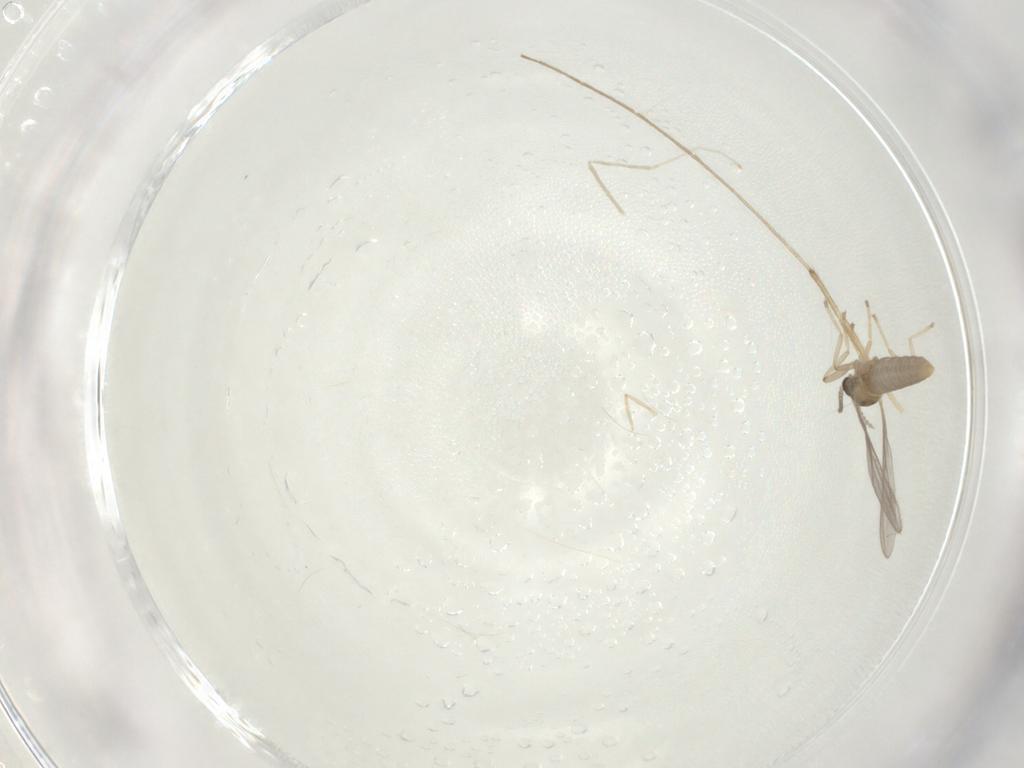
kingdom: Animalia
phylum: Arthropoda
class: Insecta
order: Diptera
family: Cecidomyiidae
